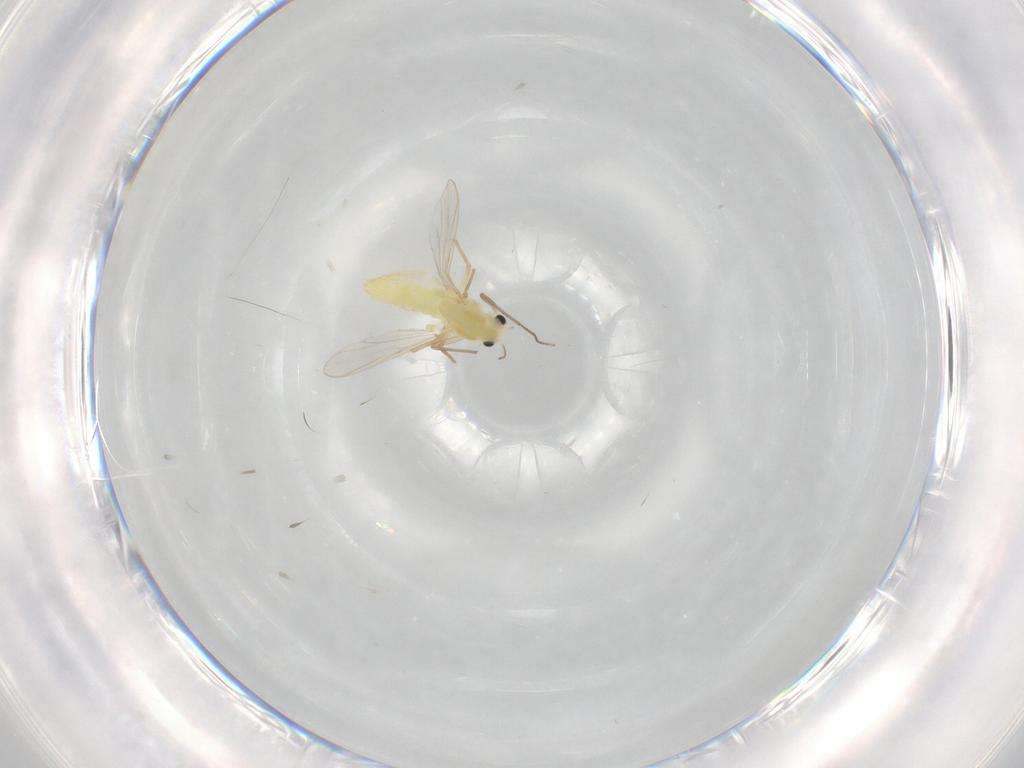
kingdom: Animalia
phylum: Arthropoda
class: Insecta
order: Diptera
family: Chironomidae
